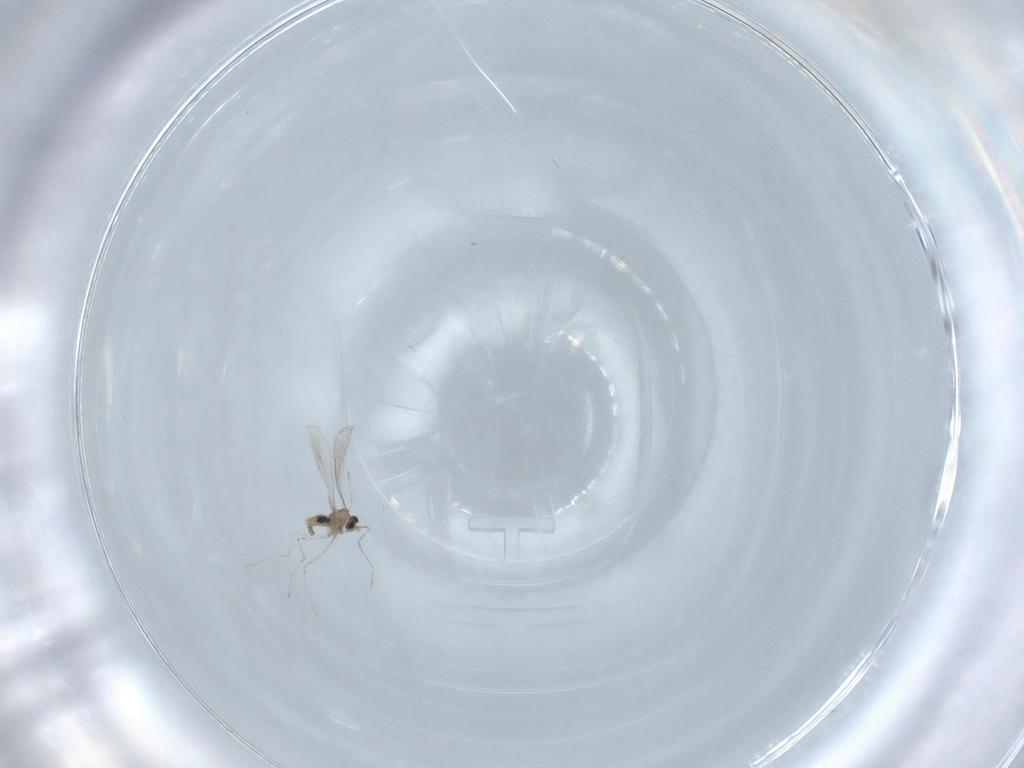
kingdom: Animalia
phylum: Arthropoda
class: Insecta
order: Diptera
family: Cecidomyiidae
